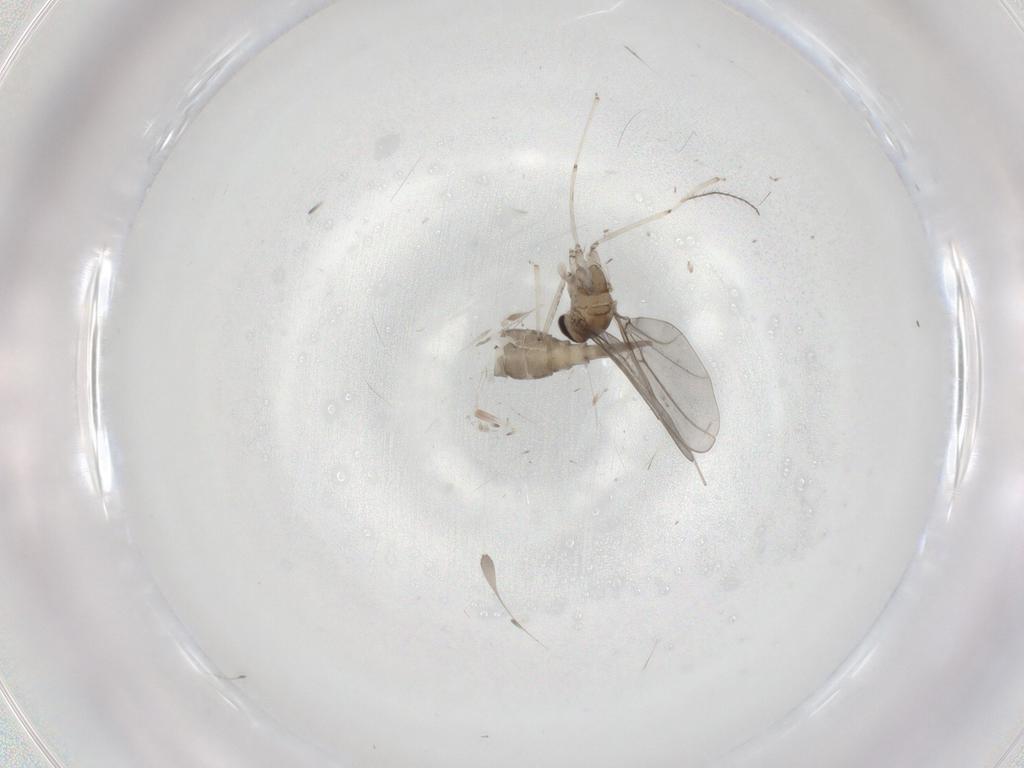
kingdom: Animalia
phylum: Arthropoda
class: Insecta
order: Diptera
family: Cecidomyiidae
